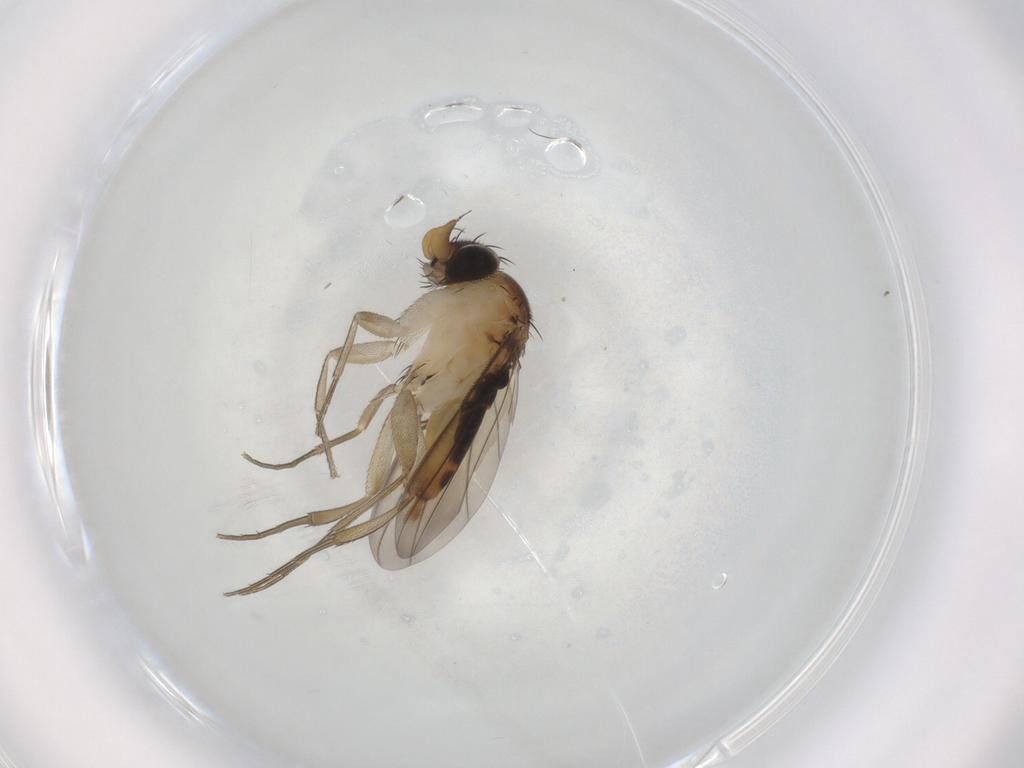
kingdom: Animalia
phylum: Arthropoda
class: Insecta
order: Diptera
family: Phoridae
